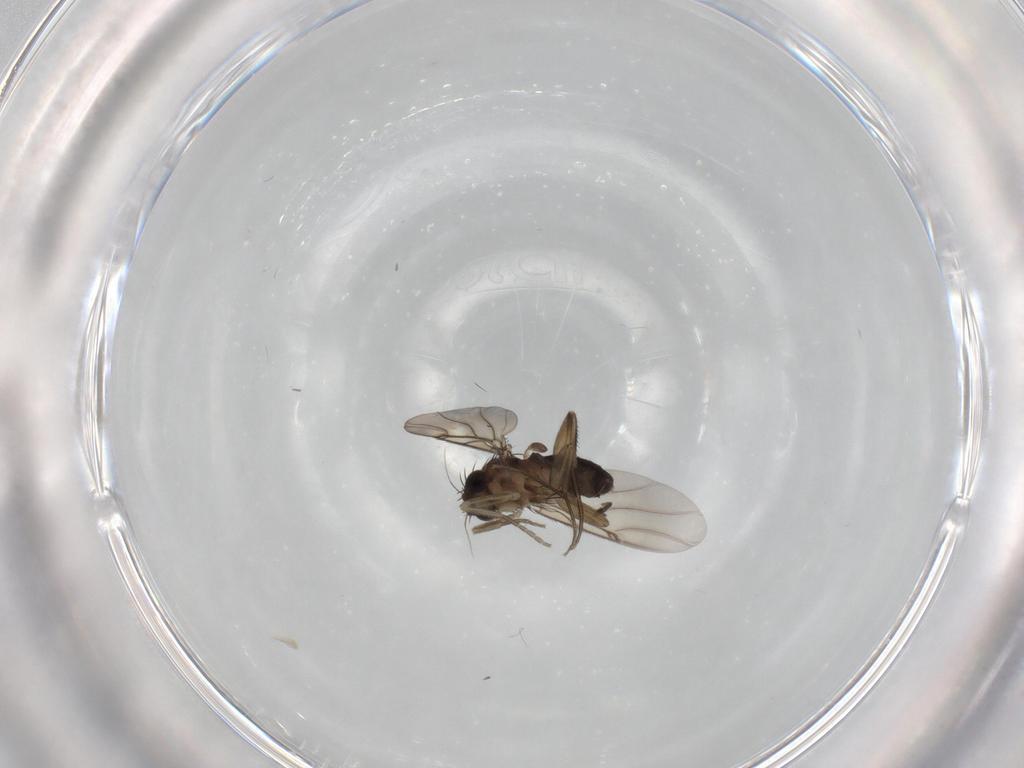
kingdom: Animalia
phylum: Arthropoda
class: Insecta
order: Diptera
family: Phoridae
